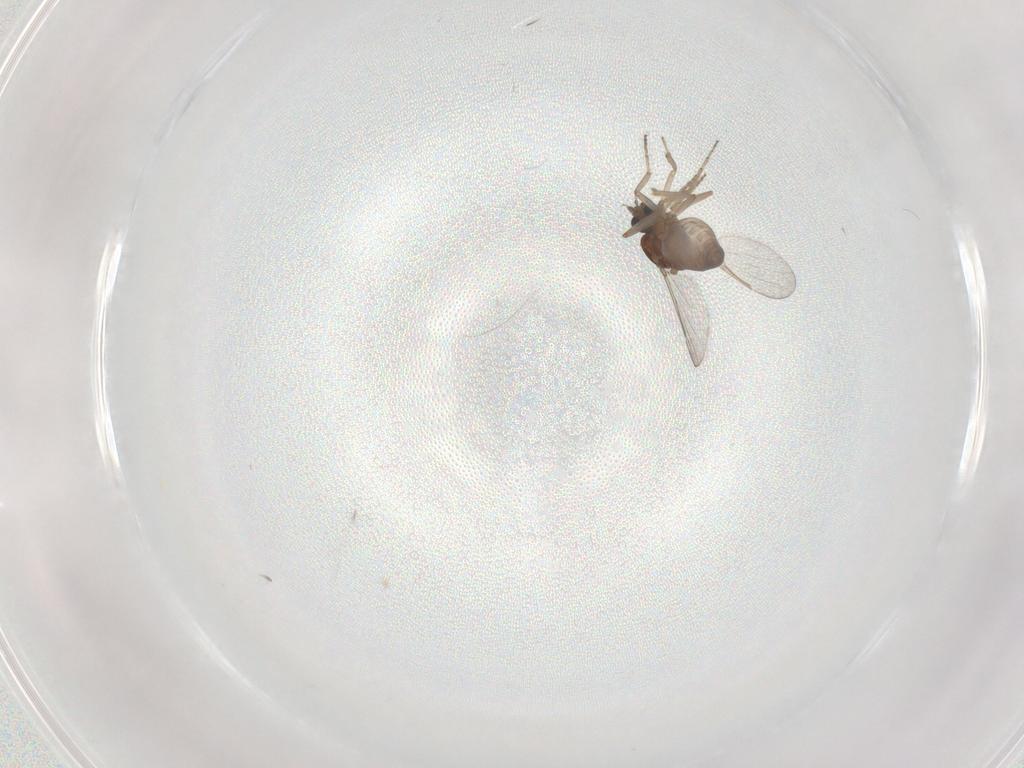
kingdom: Animalia
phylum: Arthropoda
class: Insecta
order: Diptera
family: Ceratopogonidae
